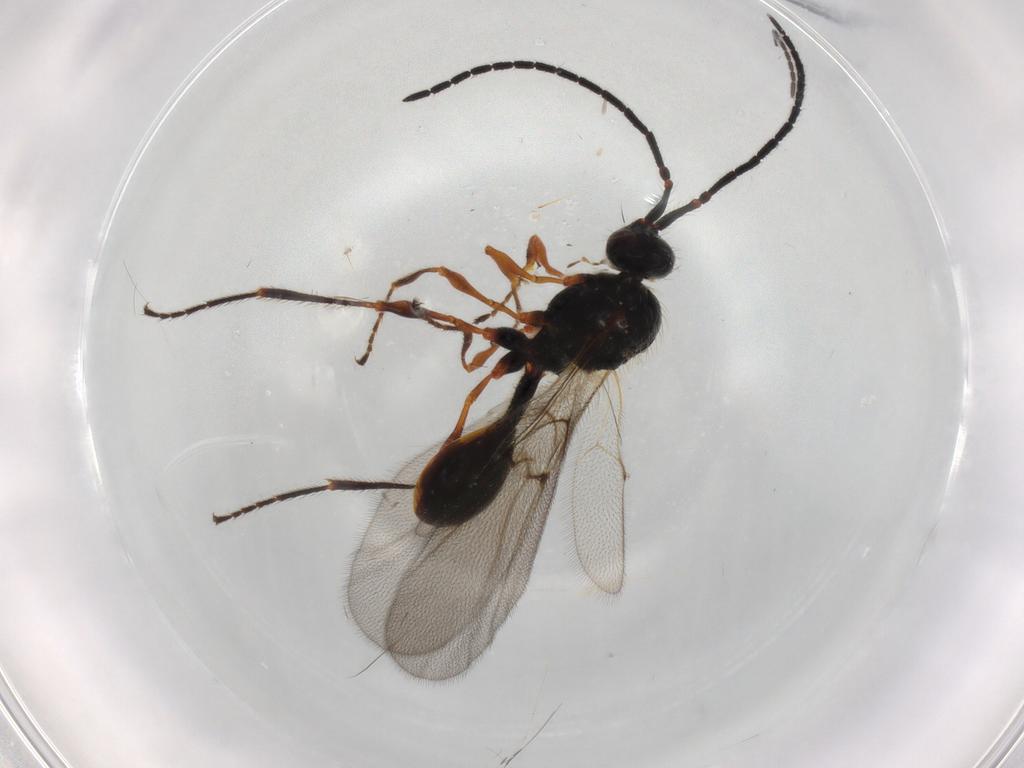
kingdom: Animalia
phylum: Arthropoda
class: Insecta
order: Hymenoptera
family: Diapriidae
